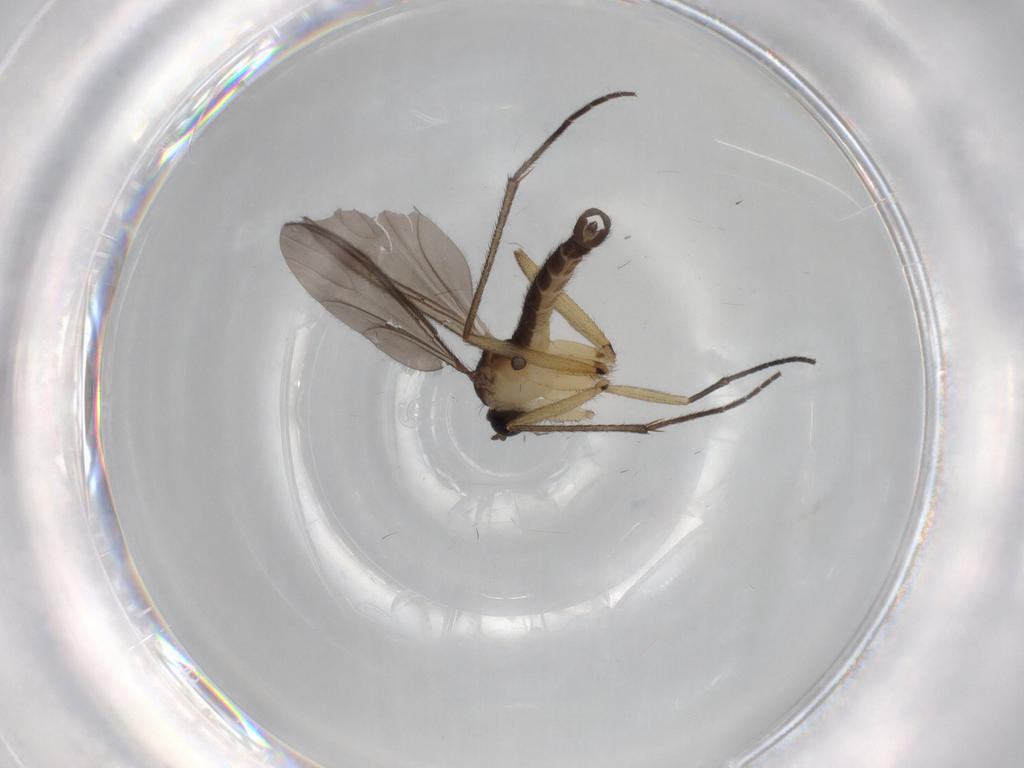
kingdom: Animalia
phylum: Arthropoda
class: Insecta
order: Diptera
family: Sciaridae
